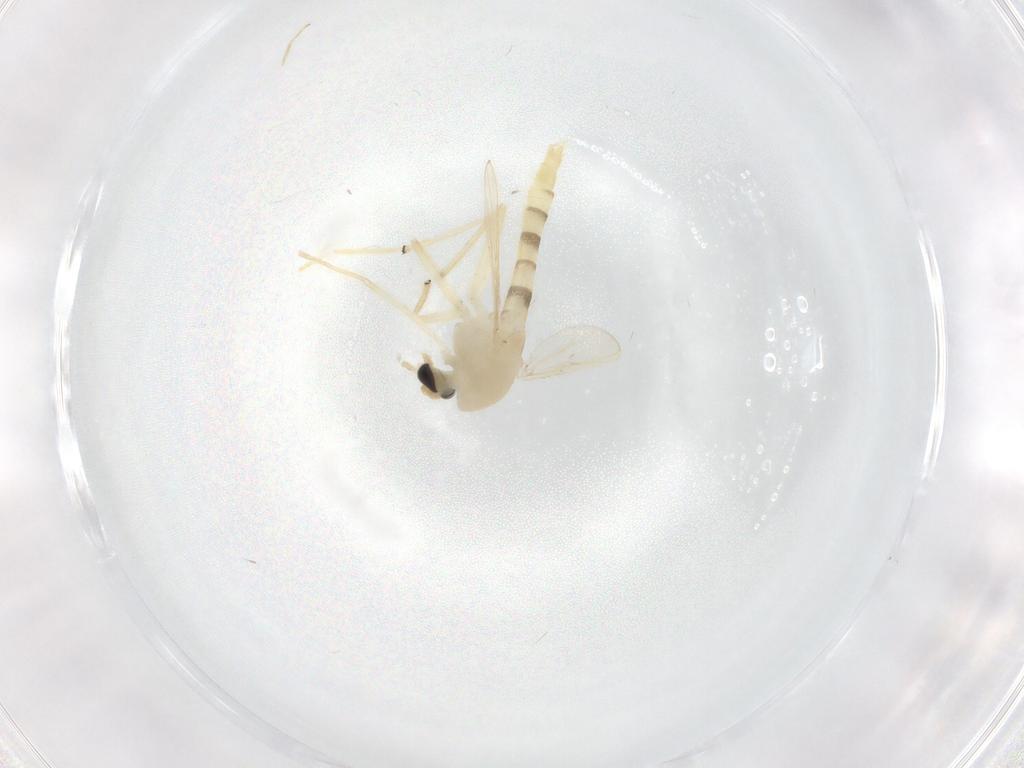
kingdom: Animalia
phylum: Arthropoda
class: Insecta
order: Diptera
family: Chironomidae
